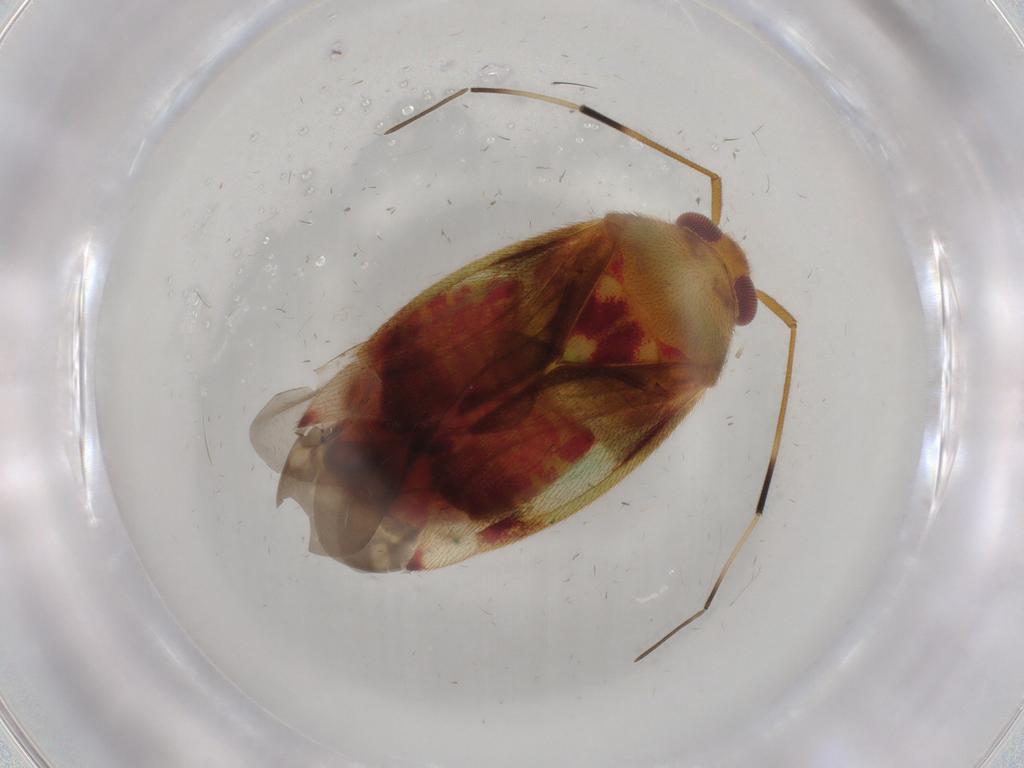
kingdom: Animalia
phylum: Arthropoda
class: Insecta
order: Hemiptera
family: Miridae
